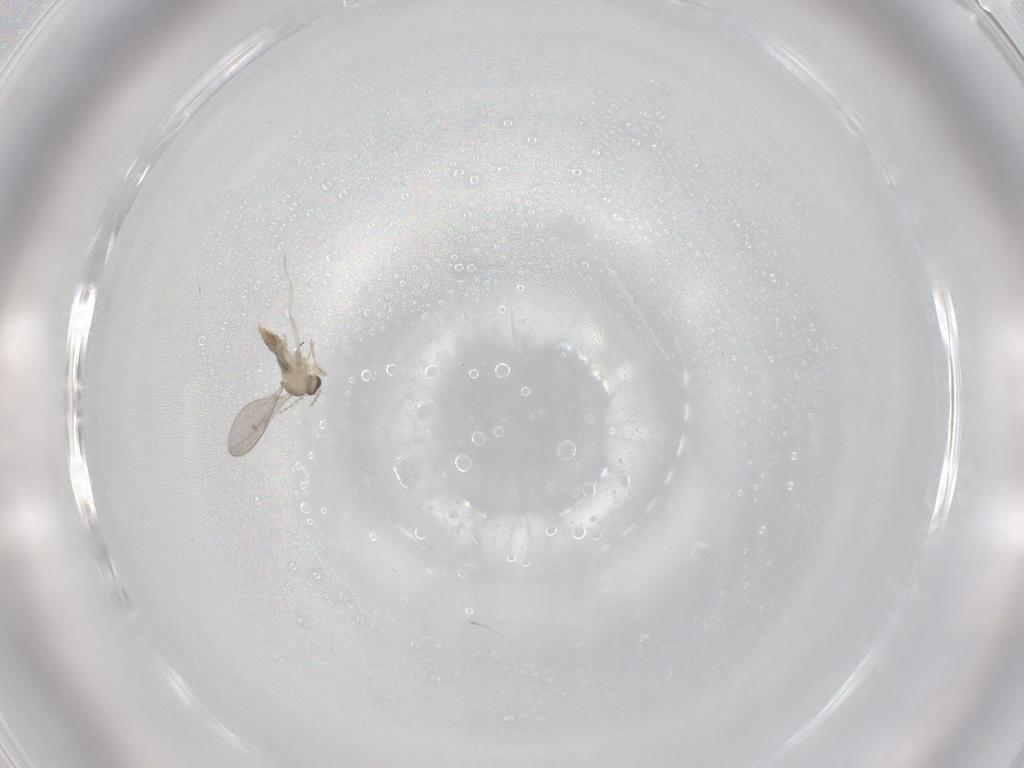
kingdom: Animalia
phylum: Arthropoda
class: Insecta
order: Diptera
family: Cecidomyiidae
